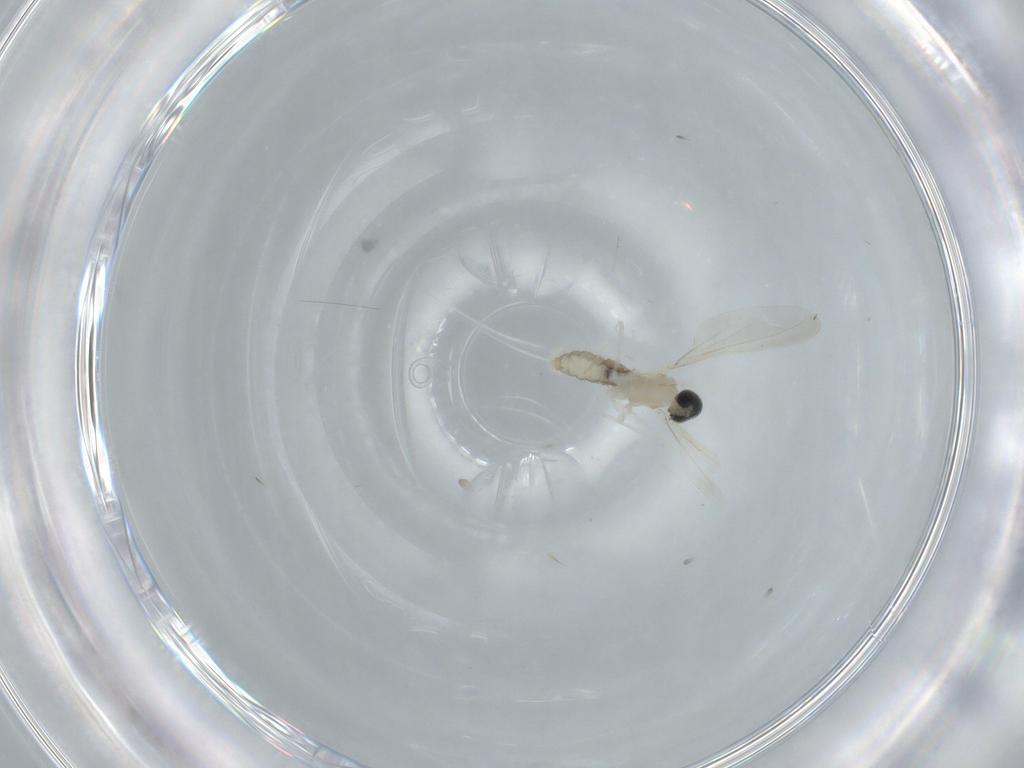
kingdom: Animalia
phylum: Arthropoda
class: Insecta
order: Diptera
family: Cecidomyiidae
